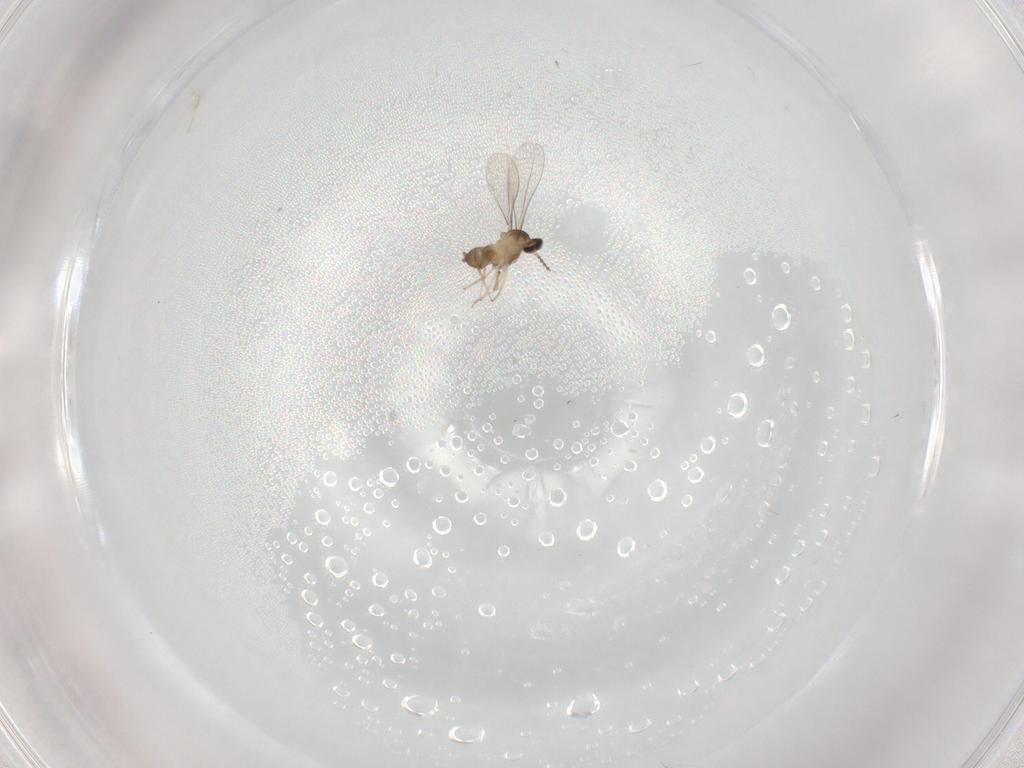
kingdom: Animalia
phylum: Arthropoda
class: Insecta
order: Diptera
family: Cecidomyiidae
